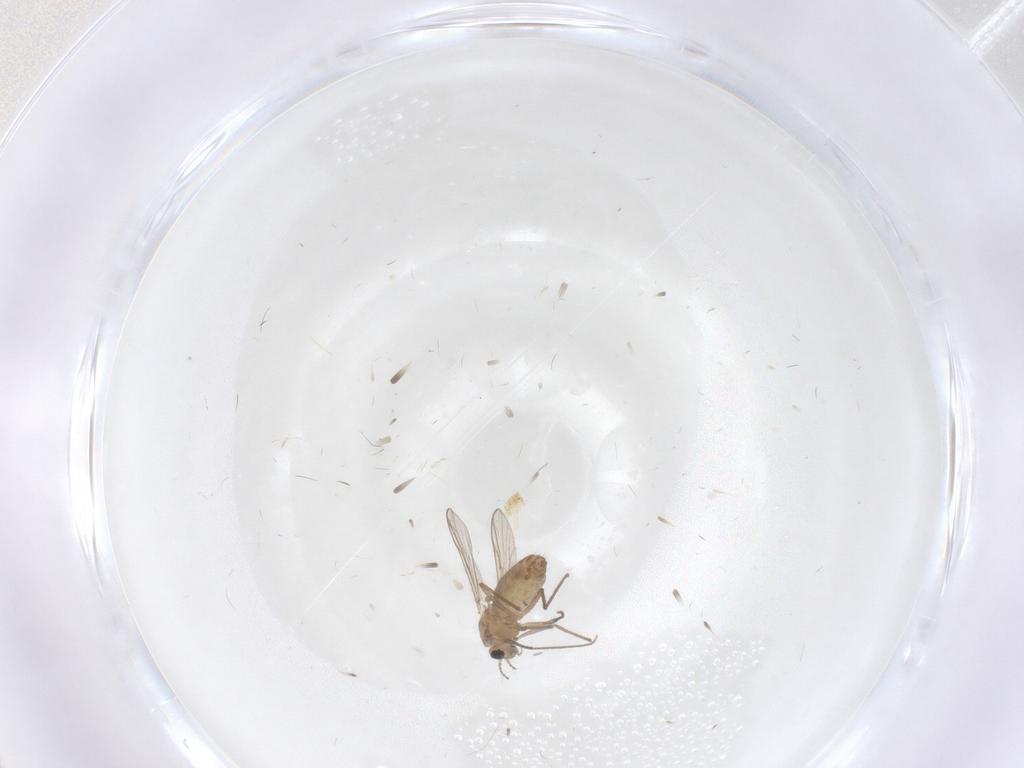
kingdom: Animalia
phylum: Arthropoda
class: Insecta
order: Diptera
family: Chironomidae
